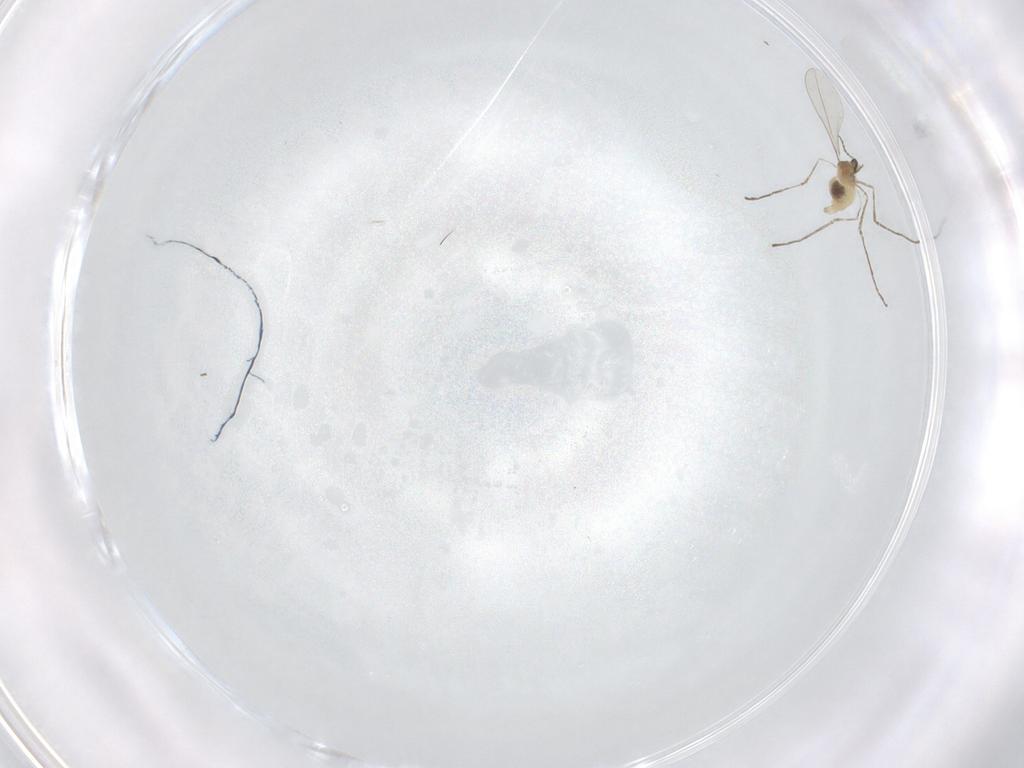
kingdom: Animalia
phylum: Arthropoda
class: Insecta
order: Diptera
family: Cecidomyiidae
